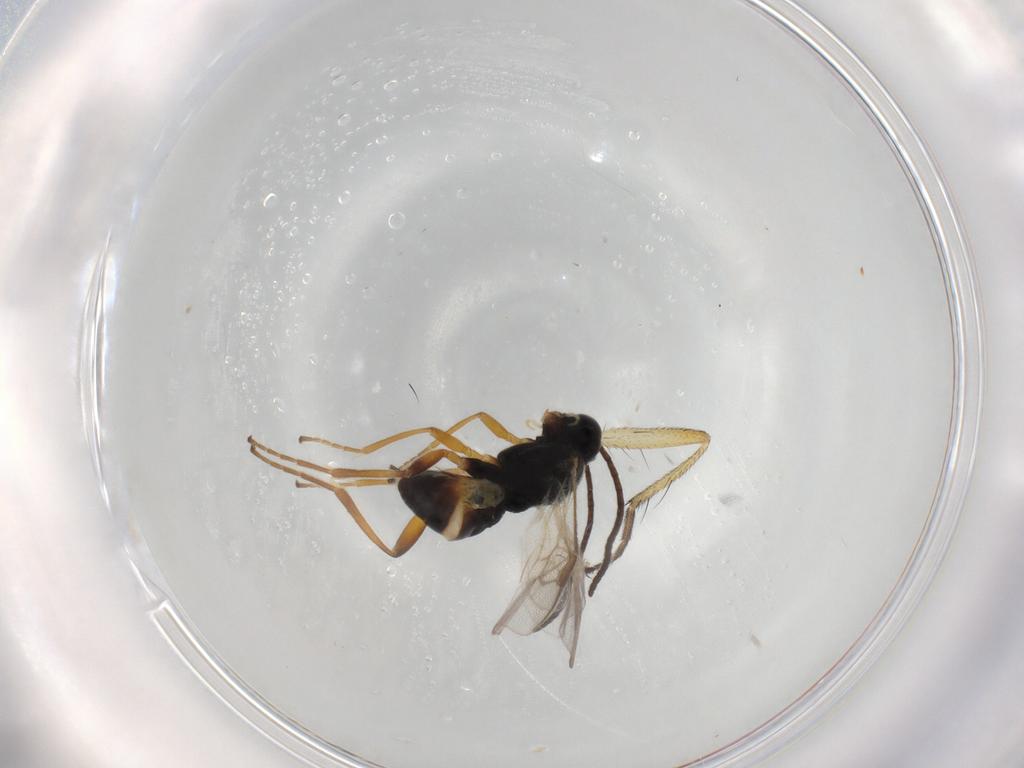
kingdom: Animalia
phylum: Arthropoda
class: Insecta
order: Hymenoptera
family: Braconidae
